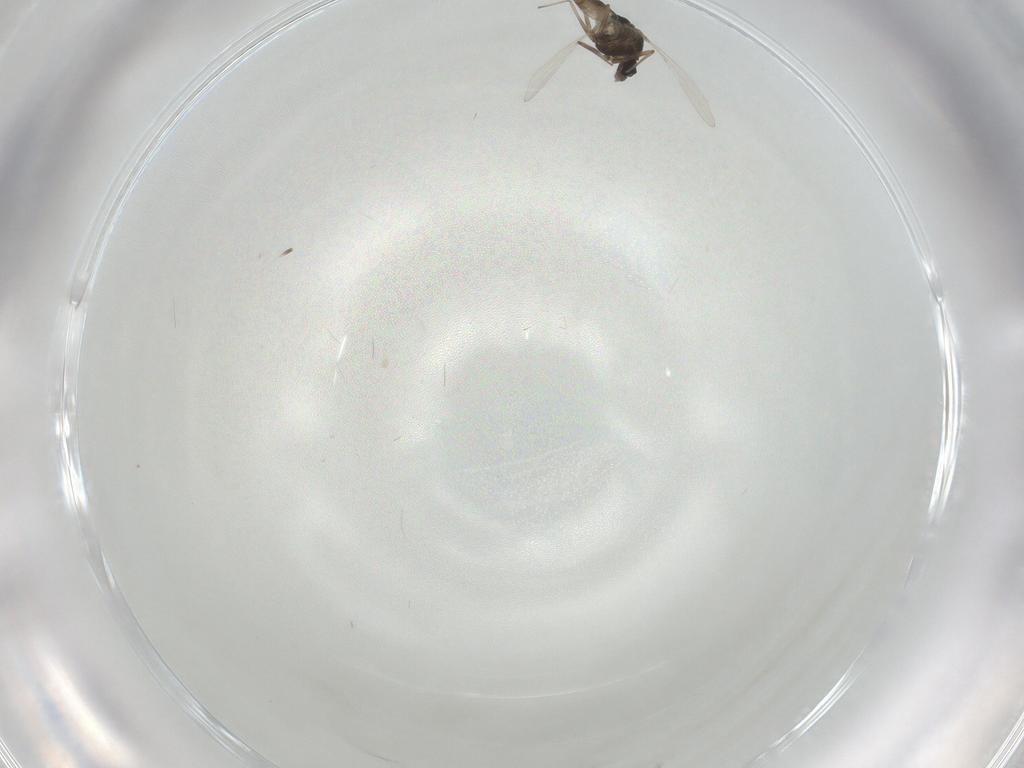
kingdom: Animalia
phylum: Arthropoda
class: Insecta
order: Diptera
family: Chironomidae
